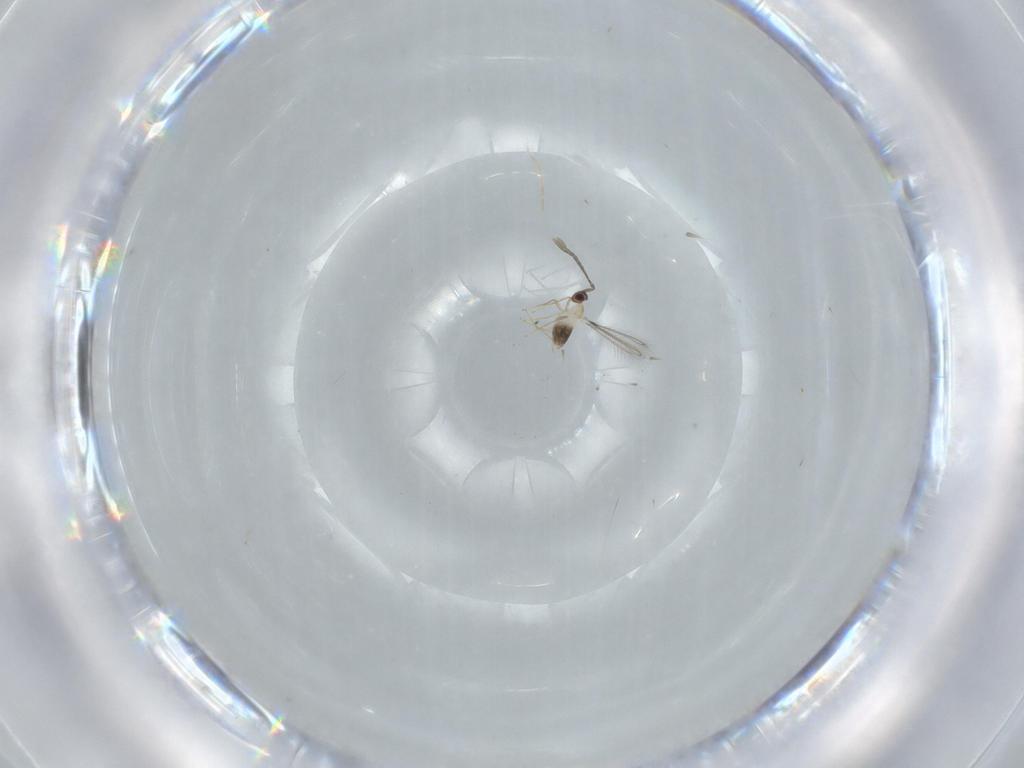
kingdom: Animalia
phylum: Arthropoda
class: Insecta
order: Hymenoptera
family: Mymaridae
